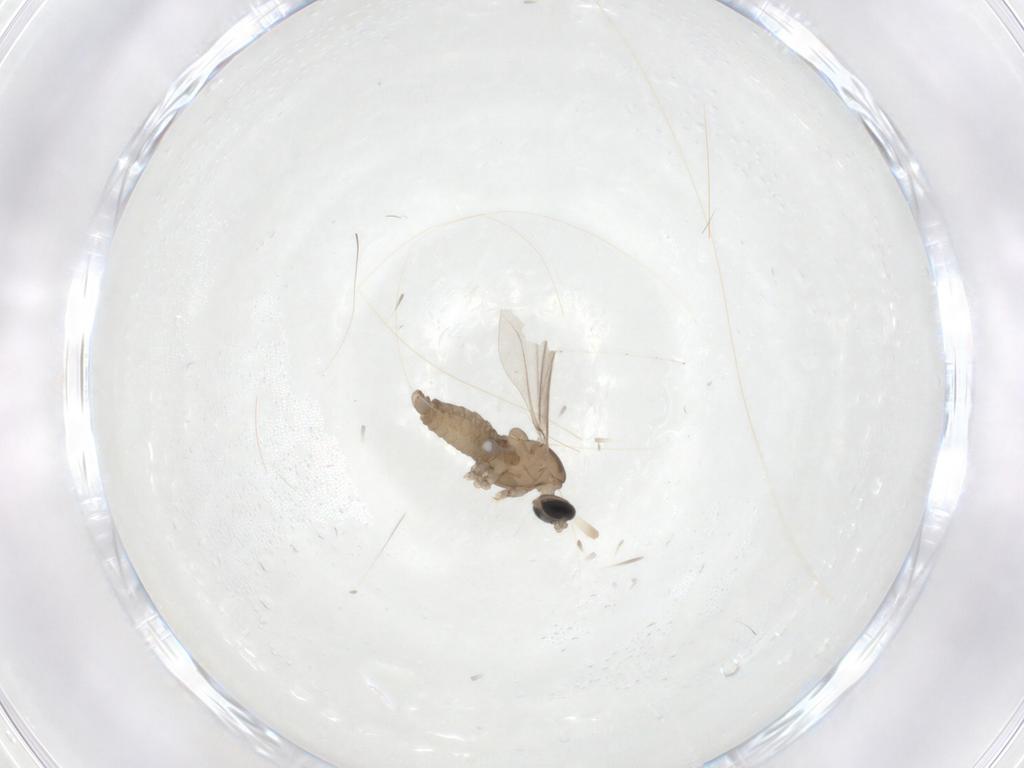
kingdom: Animalia
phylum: Arthropoda
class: Insecta
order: Diptera
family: Cecidomyiidae
